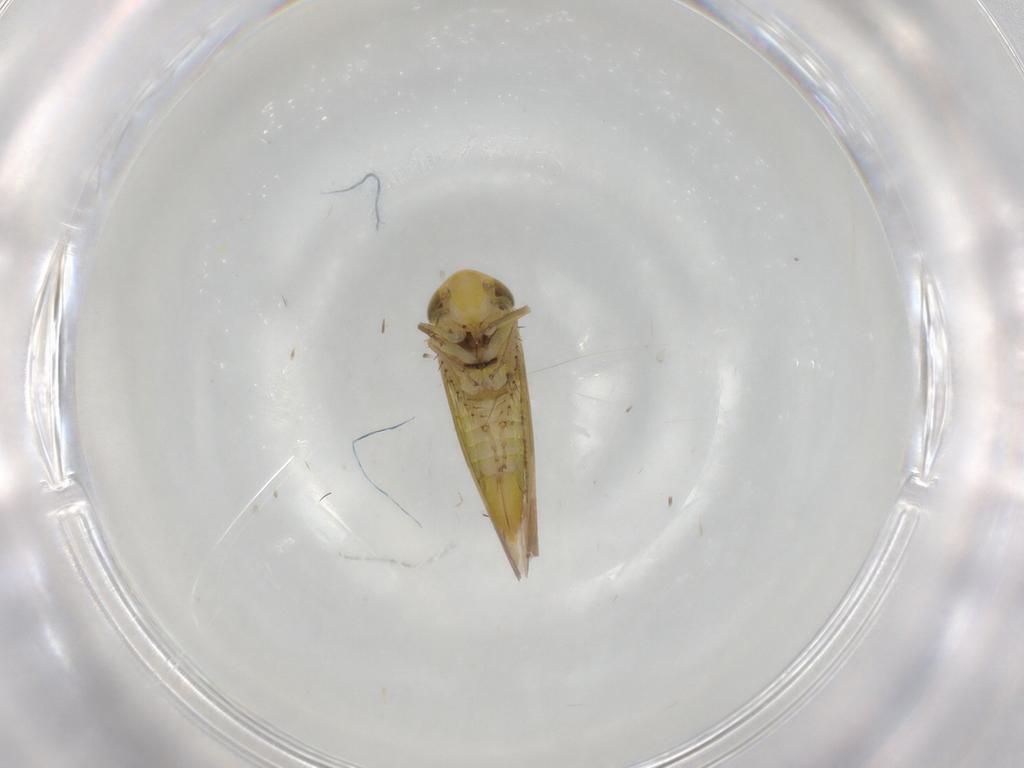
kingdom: Animalia
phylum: Arthropoda
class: Insecta
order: Hemiptera
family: Cicadellidae
